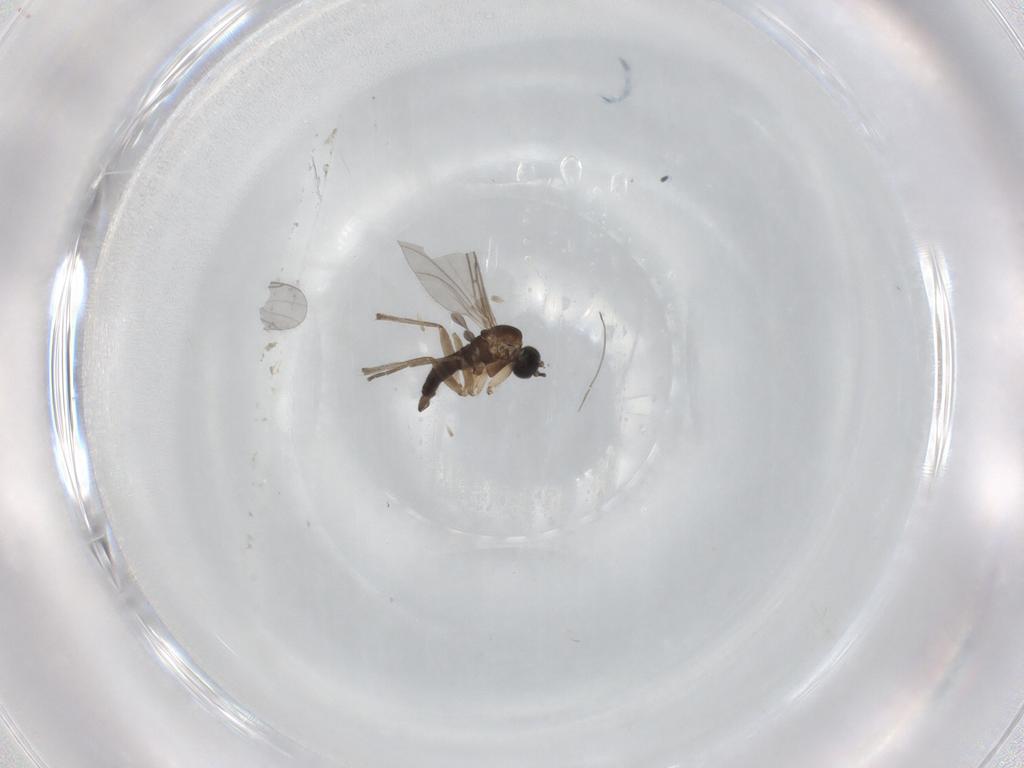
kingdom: Animalia
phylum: Arthropoda
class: Insecta
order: Diptera
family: Sciaridae
